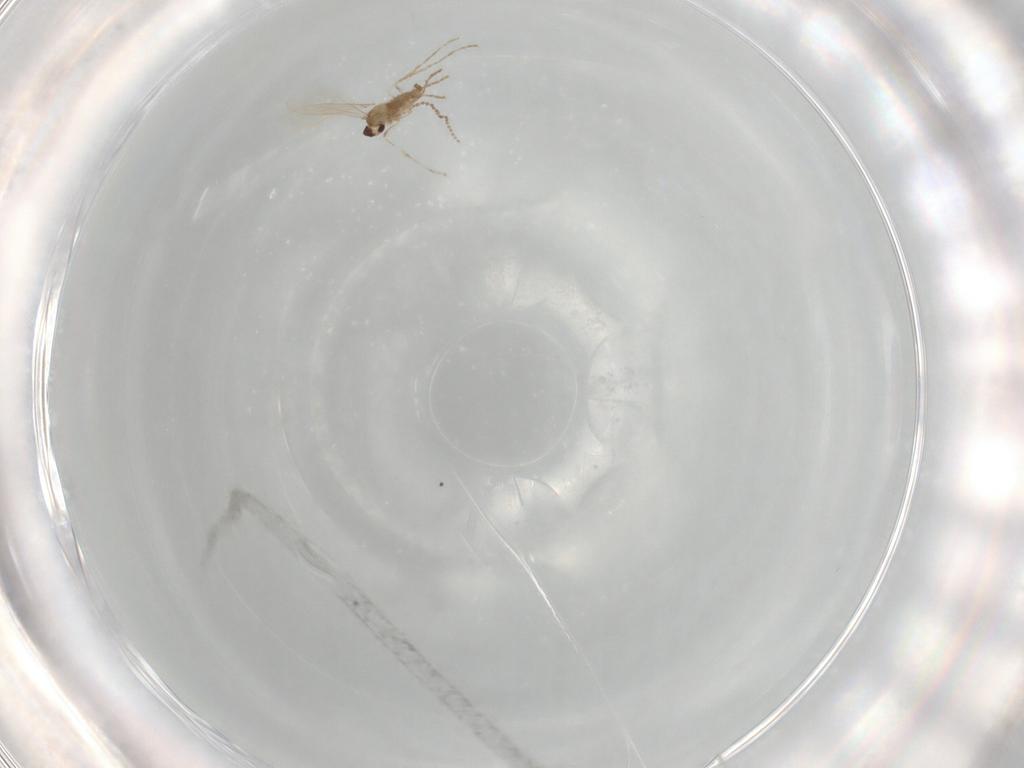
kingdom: Animalia
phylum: Arthropoda
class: Insecta
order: Diptera
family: Cecidomyiidae
